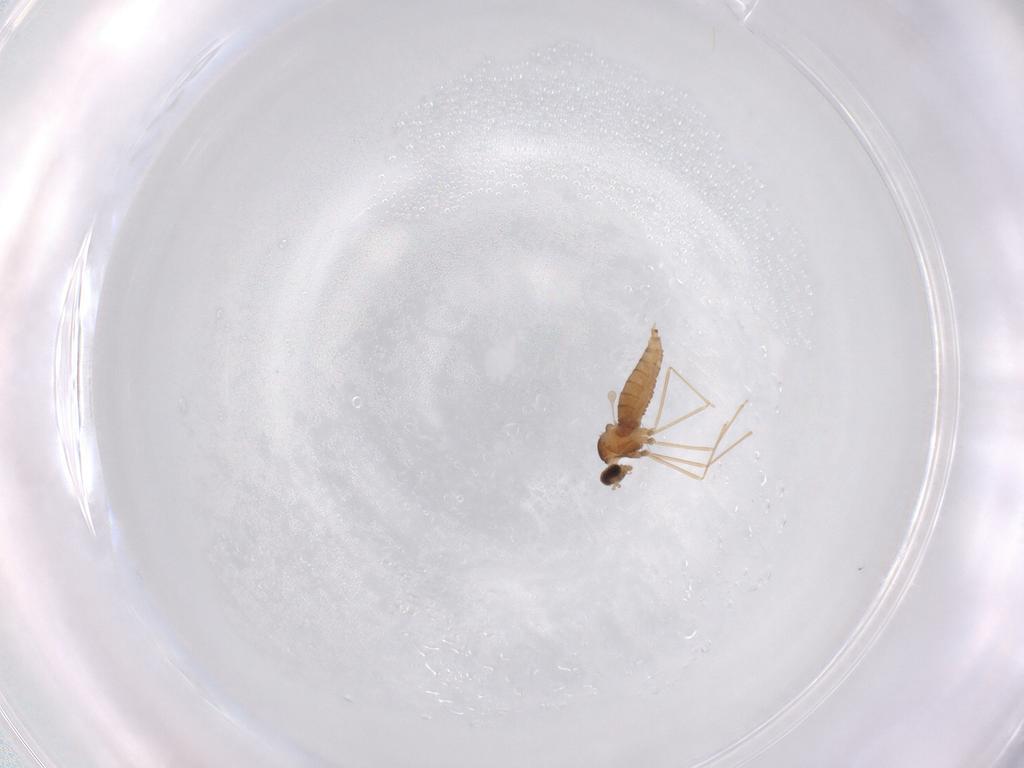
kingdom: Animalia
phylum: Arthropoda
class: Insecta
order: Diptera
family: Cecidomyiidae
